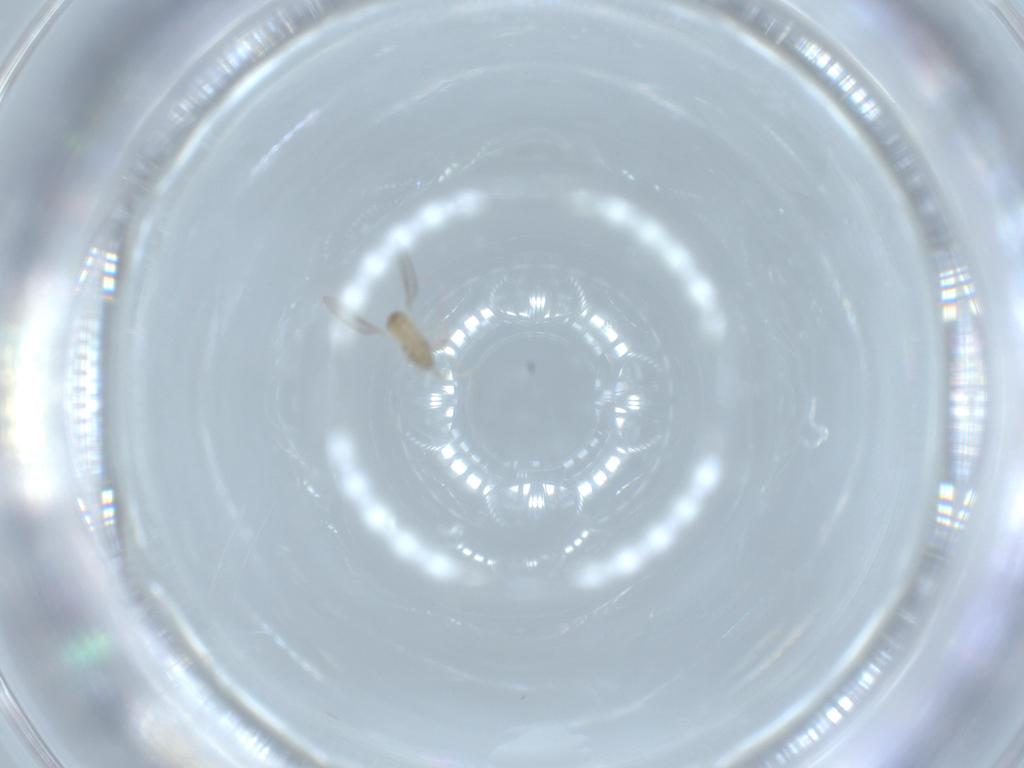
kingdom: Animalia
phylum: Arthropoda
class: Insecta
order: Diptera
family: Cecidomyiidae
